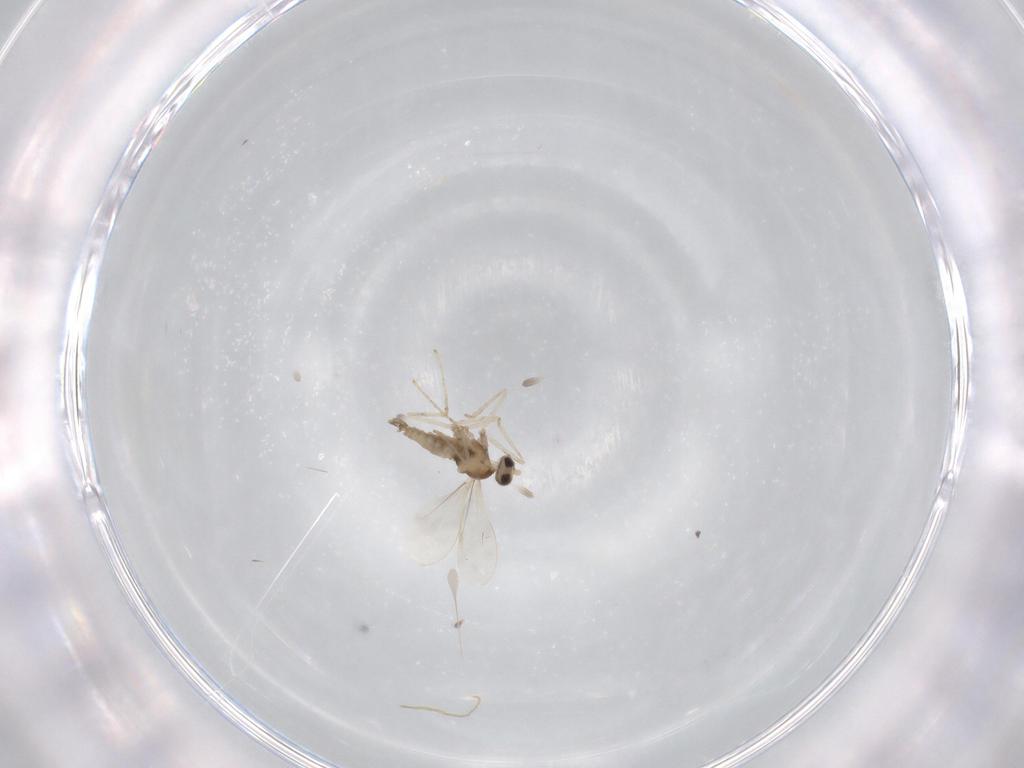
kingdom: Animalia
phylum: Arthropoda
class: Insecta
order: Diptera
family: Cecidomyiidae
